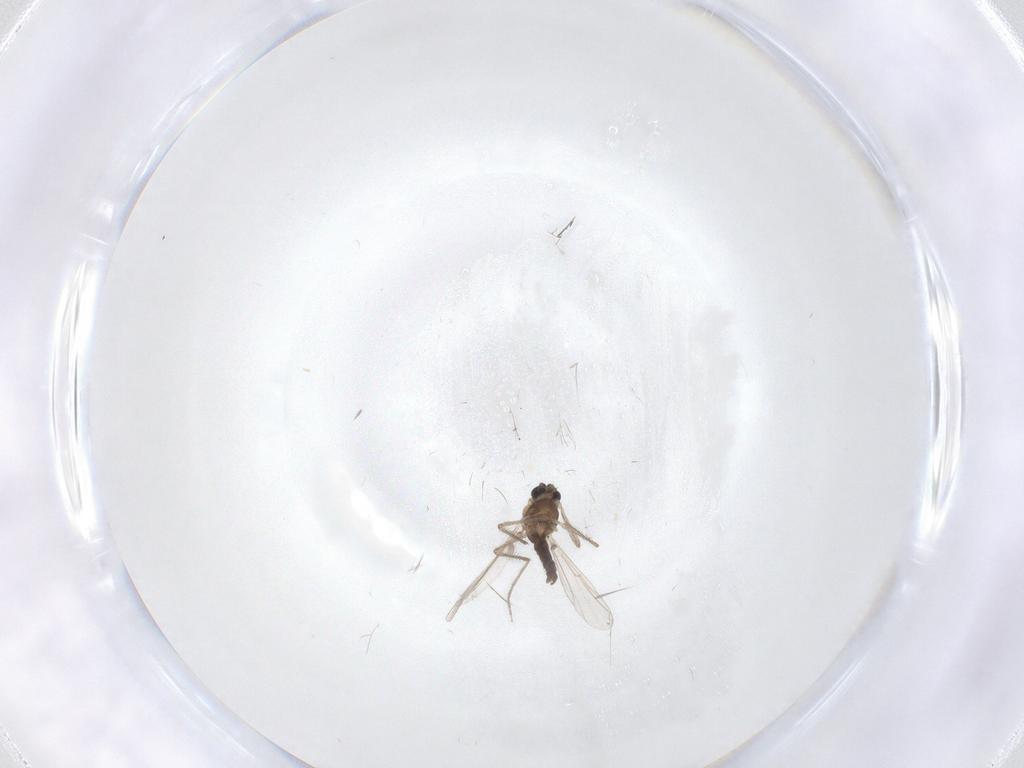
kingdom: Animalia
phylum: Arthropoda
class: Insecta
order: Diptera
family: Chironomidae
